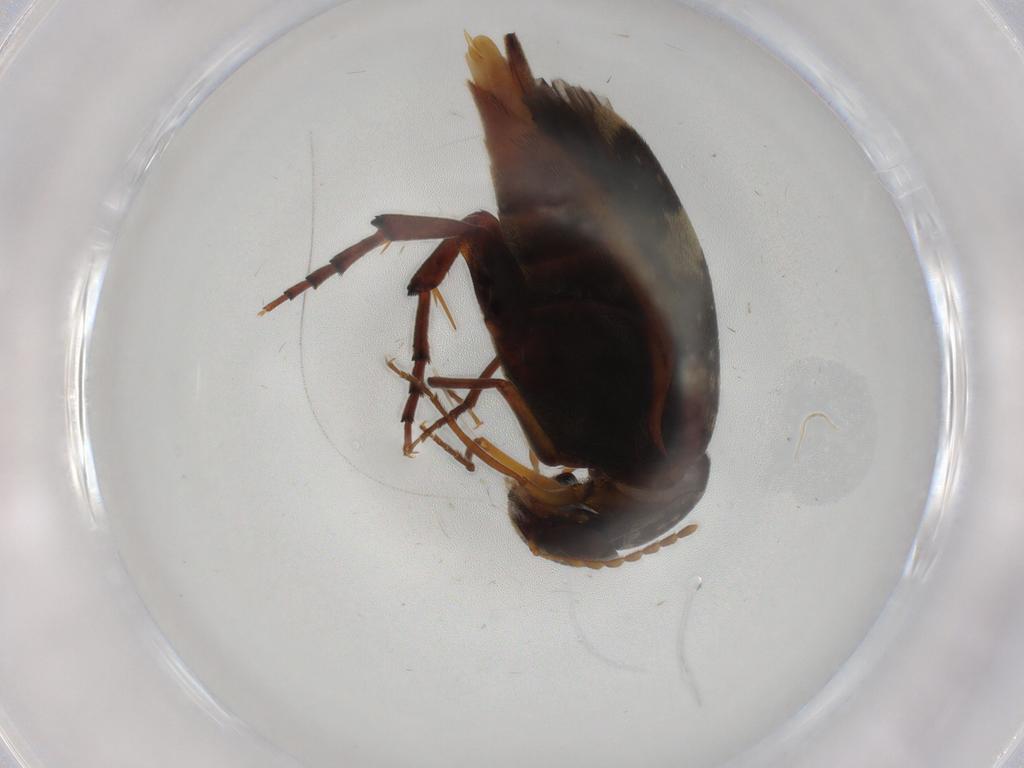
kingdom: Animalia
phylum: Arthropoda
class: Insecta
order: Coleoptera
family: Mordellidae
